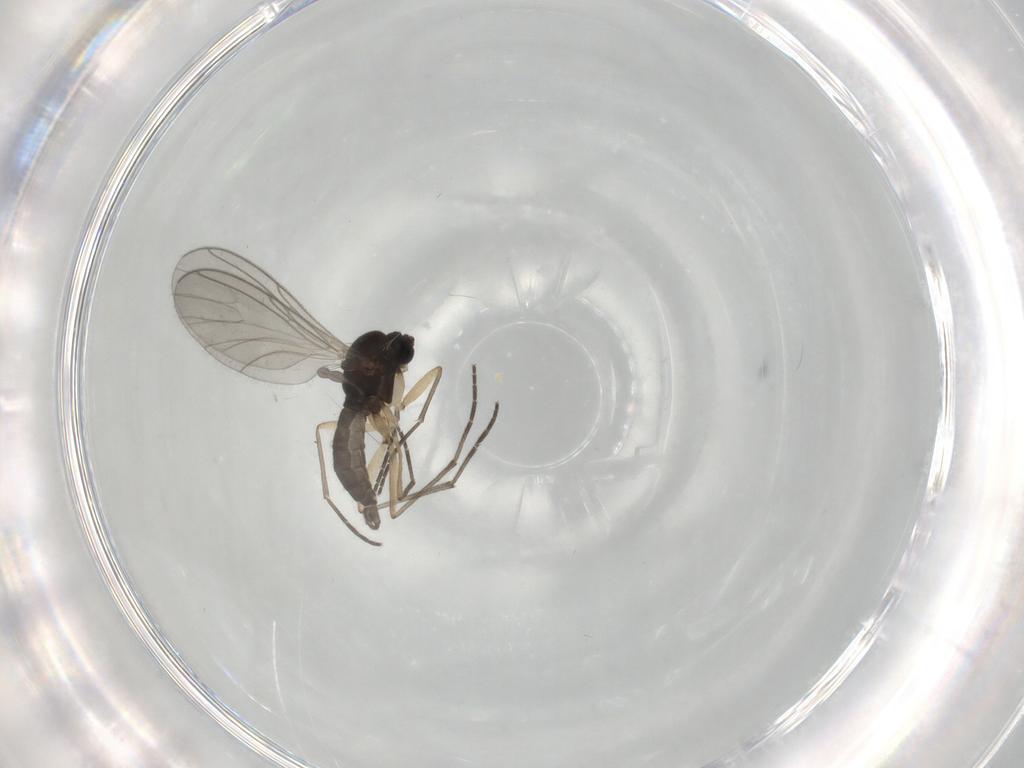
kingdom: Animalia
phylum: Arthropoda
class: Insecta
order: Diptera
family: Sciaridae
